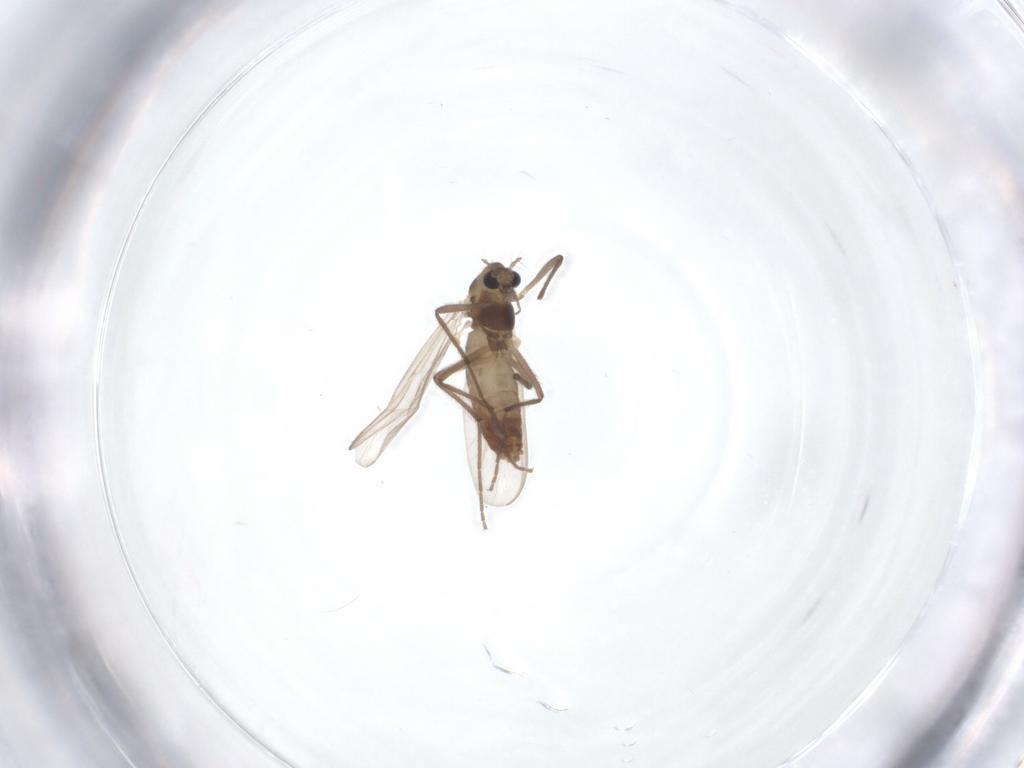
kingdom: Animalia
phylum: Arthropoda
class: Insecta
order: Diptera
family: Chironomidae
